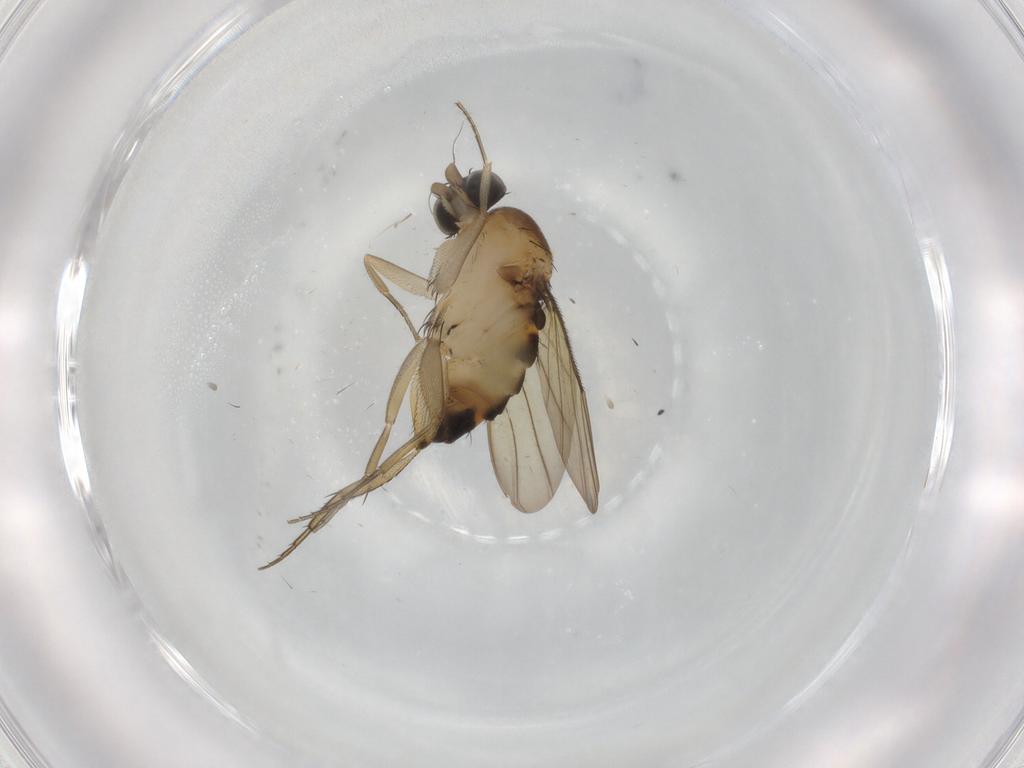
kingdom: Animalia
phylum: Arthropoda
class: Insecta
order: Diptera
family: Phoridae
